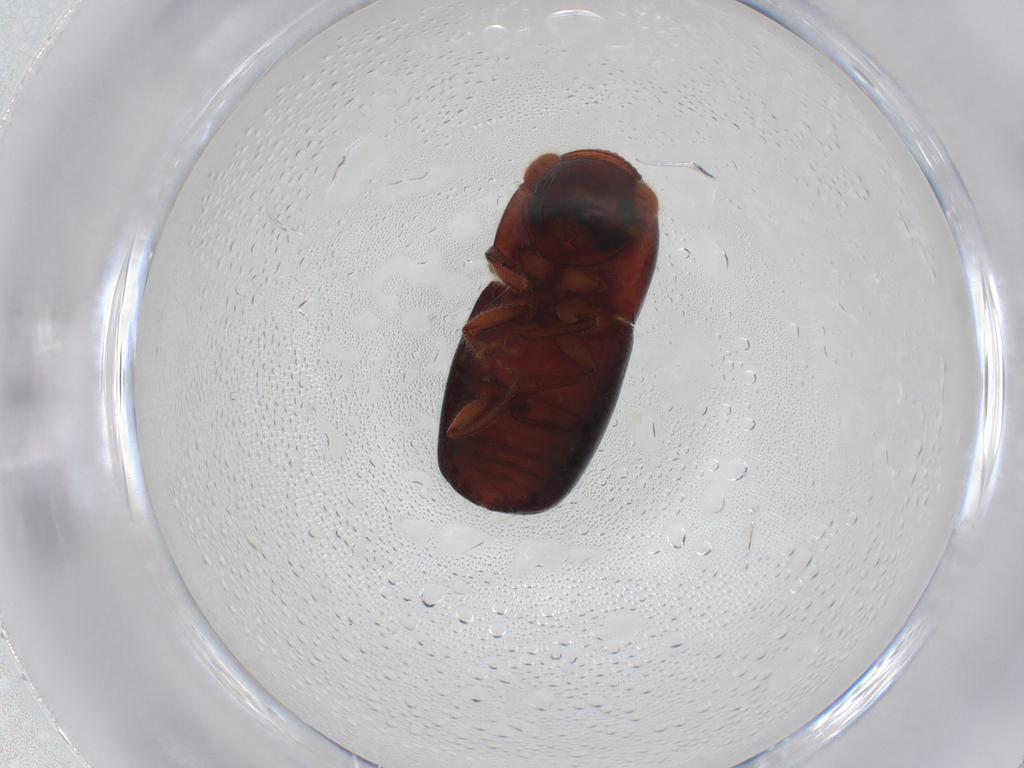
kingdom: Animalia
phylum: Arthropoda
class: Insecta
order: Coleoptera
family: Curculionidae
